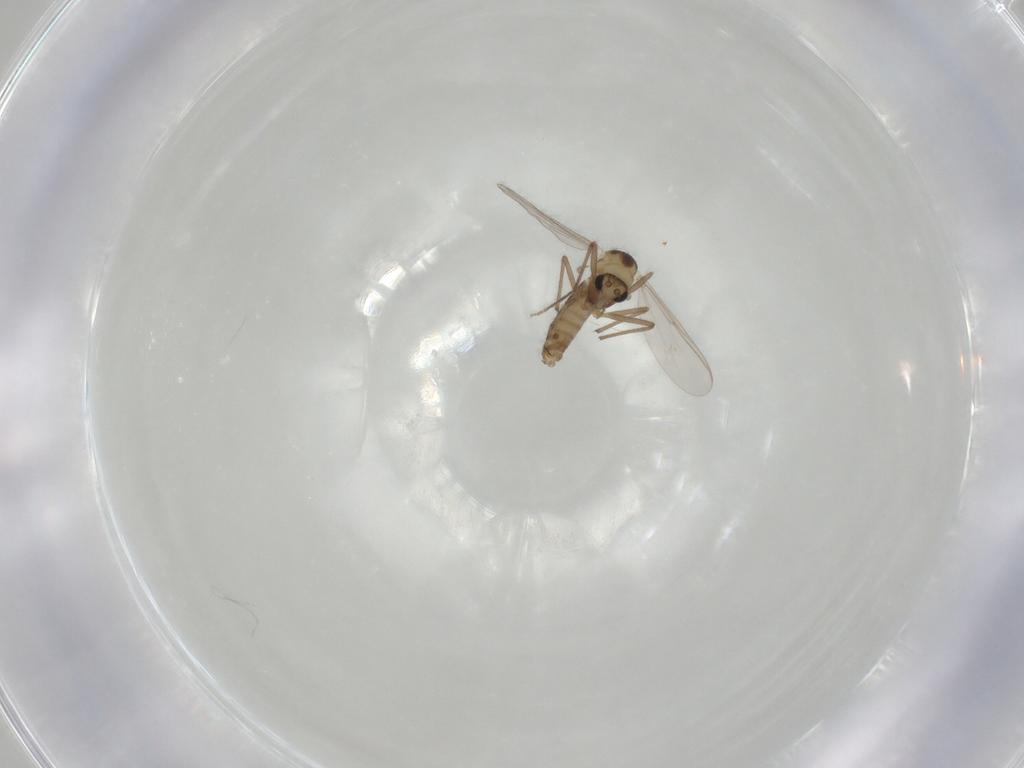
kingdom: Animalia
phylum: Arthropoda
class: Insecta
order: Diptera
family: Chironomidae
